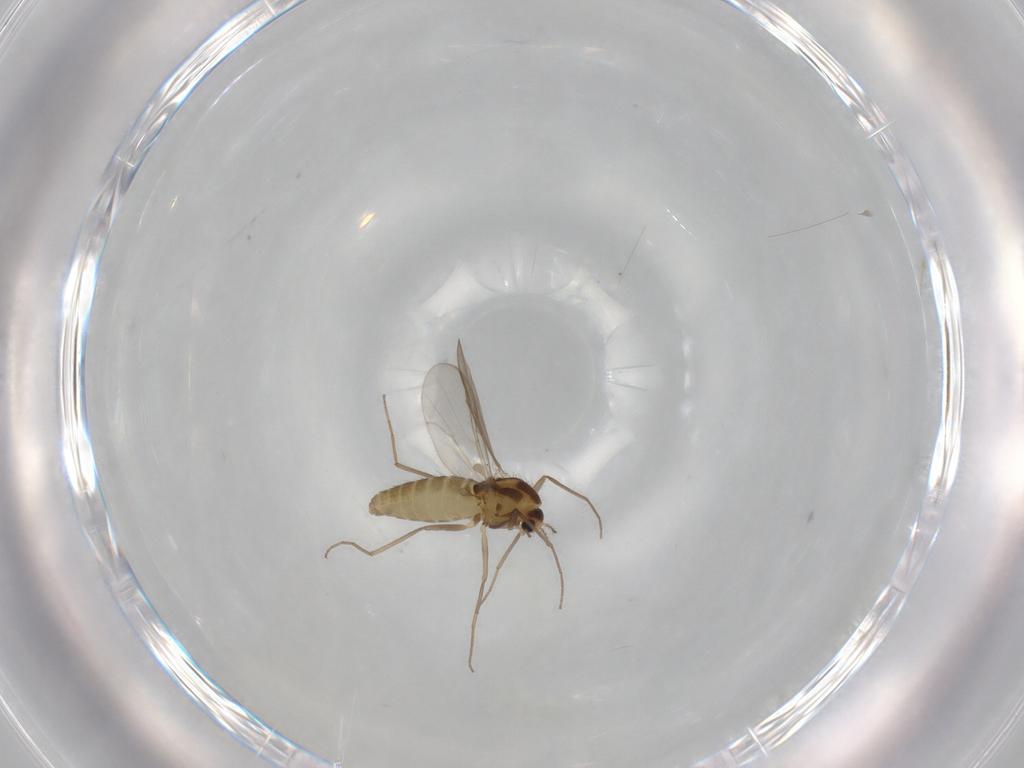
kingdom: Animalia
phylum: Arthropoda
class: Insecta
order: Diptera
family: Chironomidae
